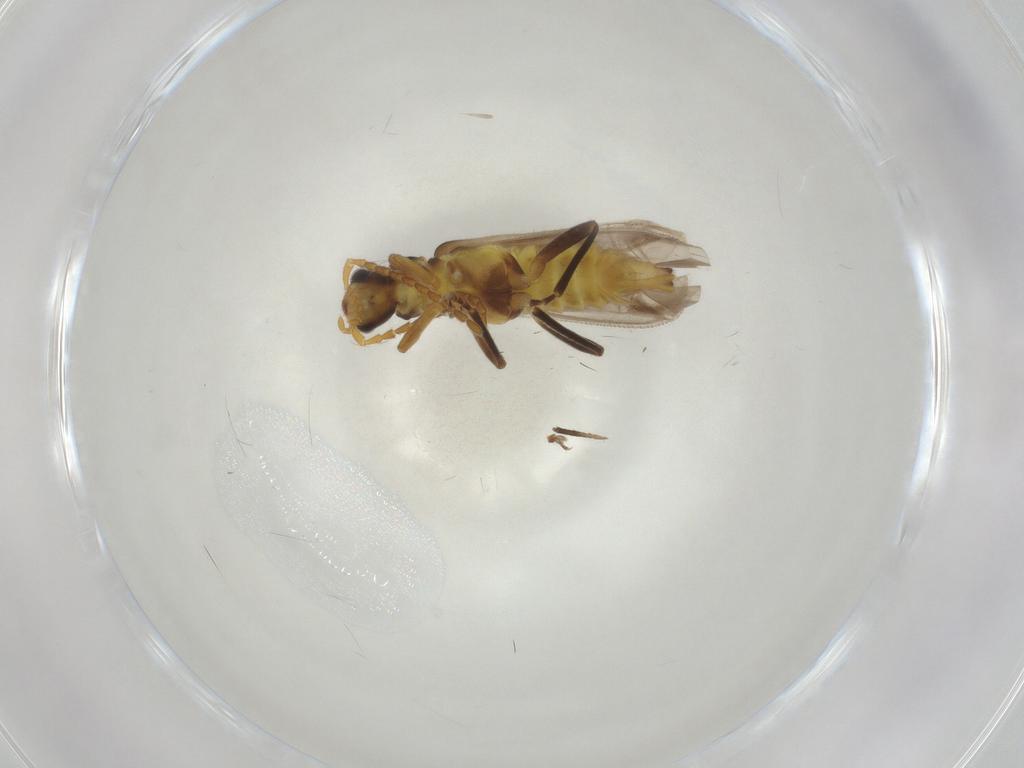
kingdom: Animalia
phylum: Arthropoda
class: Insecta
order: Coleoptera
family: Cantharidae
